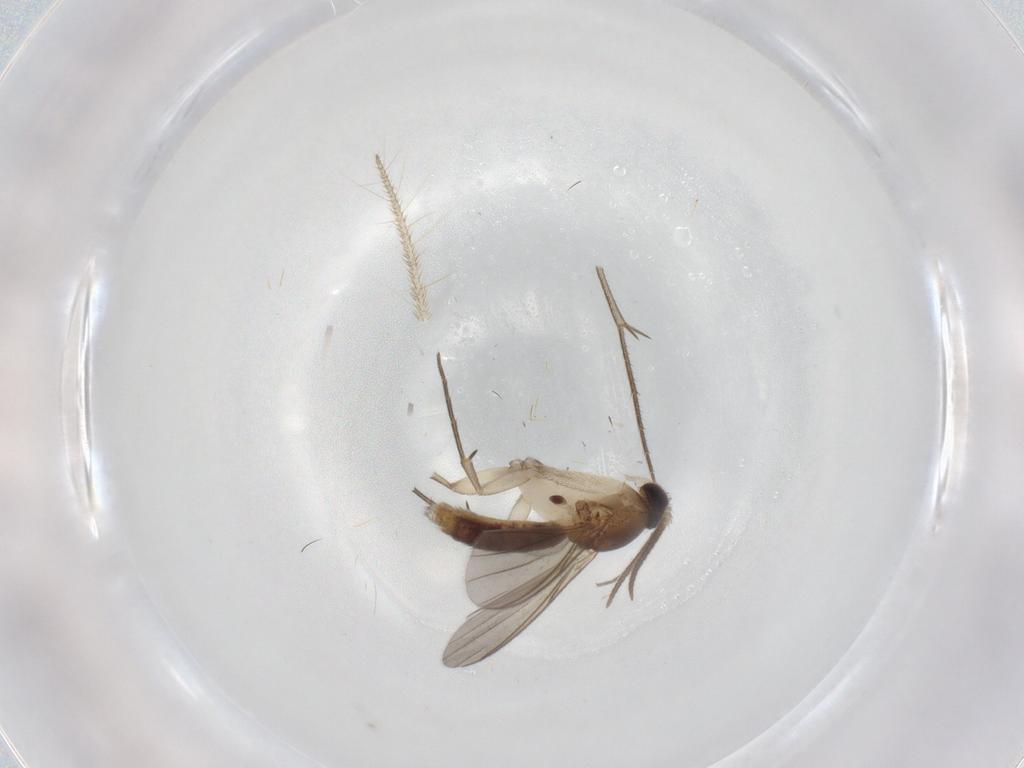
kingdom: Animalia
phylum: Arthropoda
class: Insecta
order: Diptera
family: Mycetophilidae
